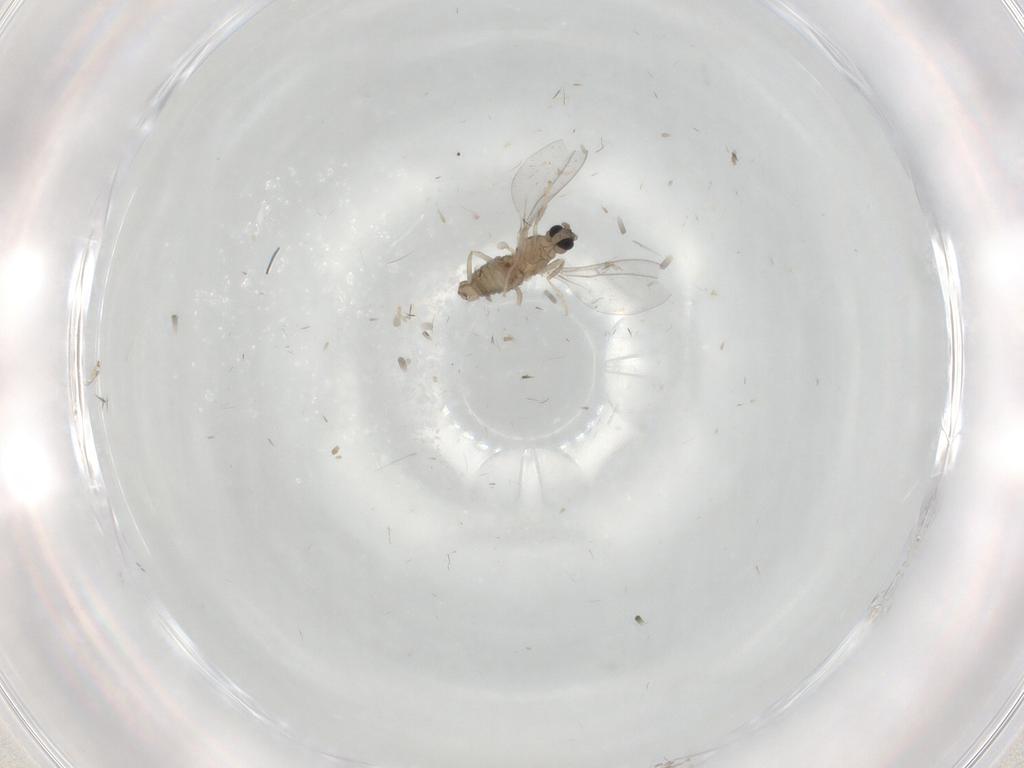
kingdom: Animalia
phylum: Arthropoda
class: Insecta
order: Diptera
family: Cecidomyiidae
